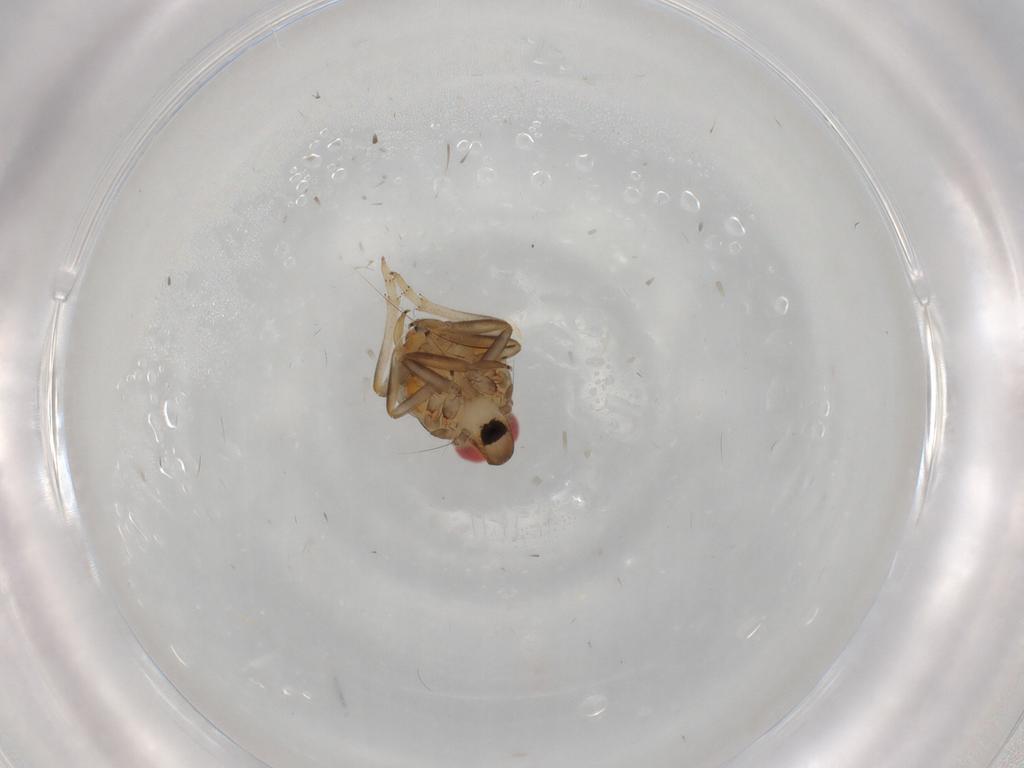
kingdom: Animalia
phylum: Arthropoda
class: Insecta
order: Hemiptera
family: Issidae
